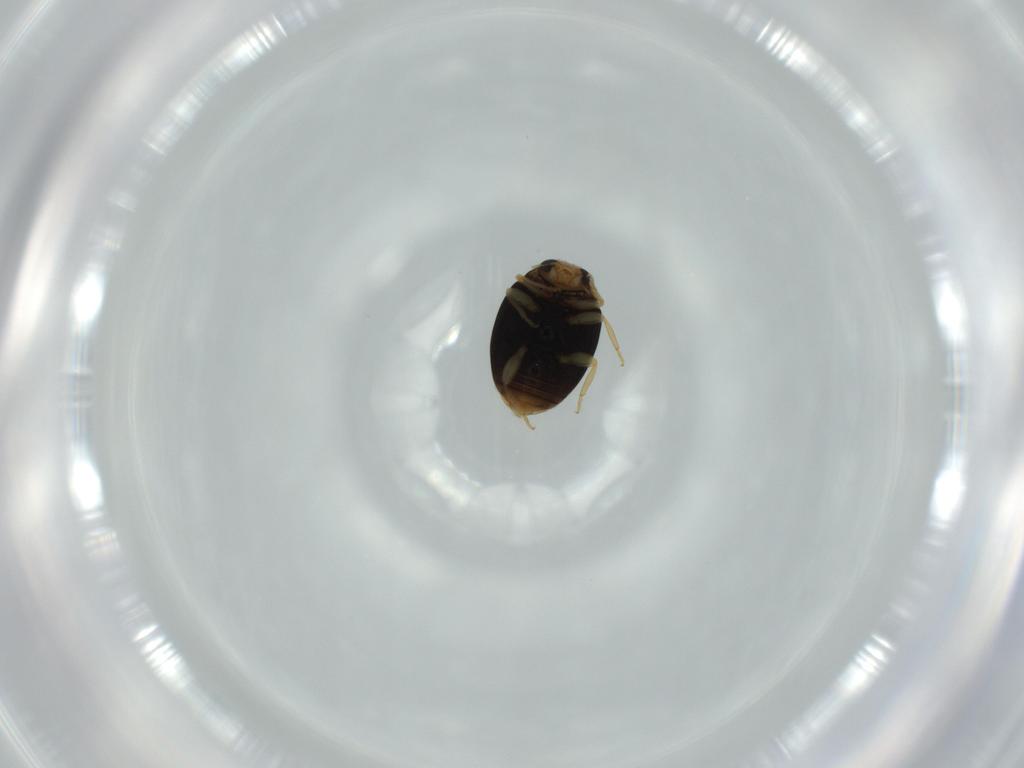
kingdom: Animalia
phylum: Arthropoda
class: Insecta
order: Coleoptera
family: Coccinellidae
